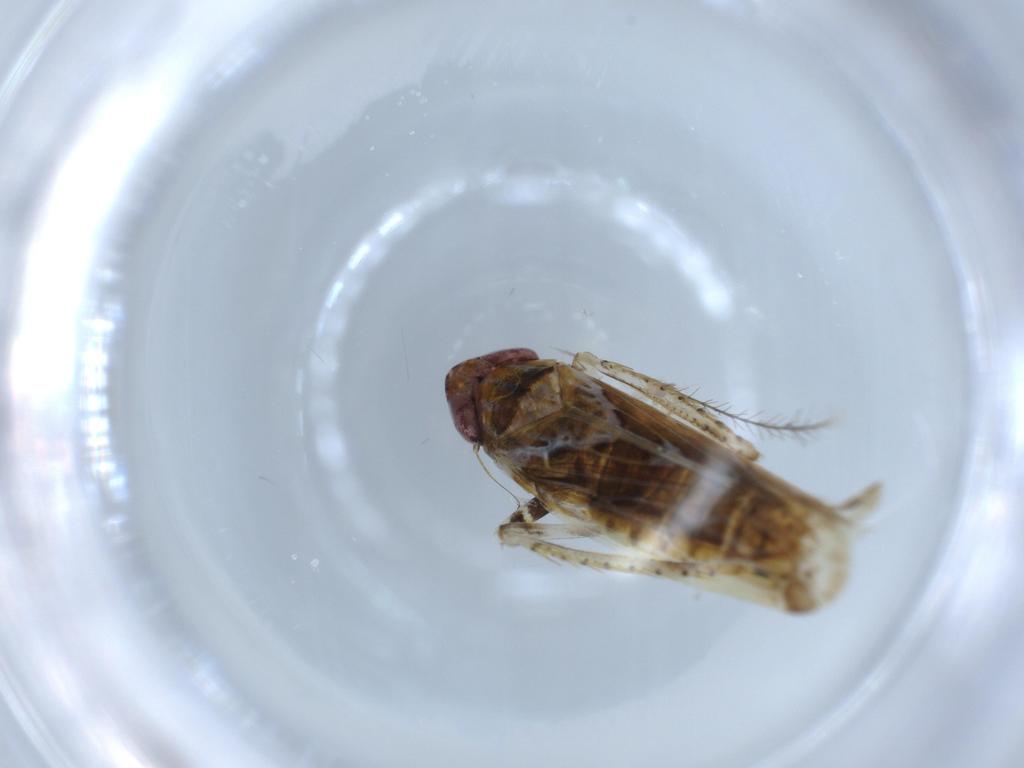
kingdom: Animalia
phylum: Arthropoda
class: Insecta
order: Hemiptera
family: Cicadellidae
